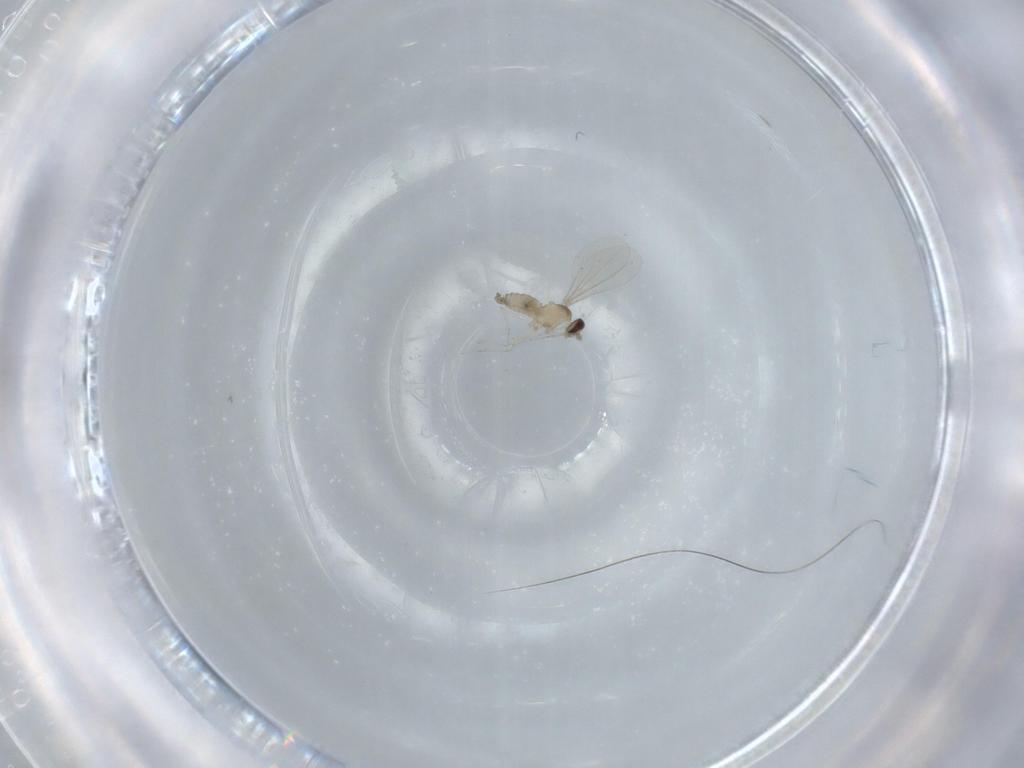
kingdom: Animalia
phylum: Arthropoda
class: Insecta
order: Diptera
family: Cecidomyiidae
